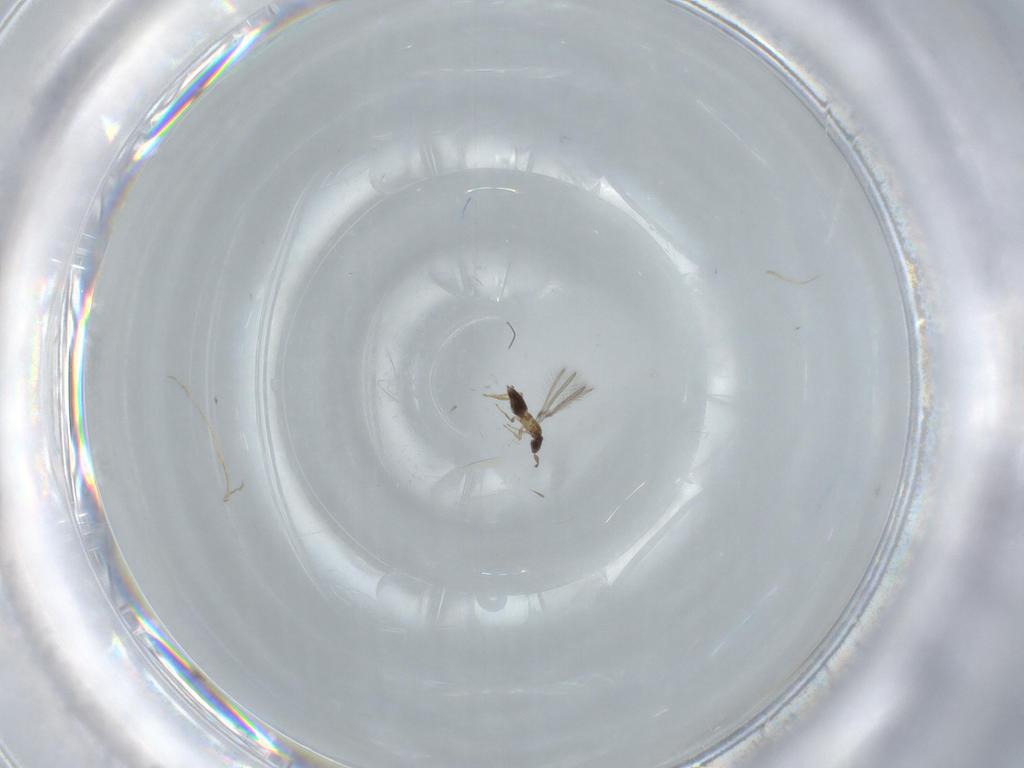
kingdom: Animalia
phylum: Arthropoda
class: Insecta
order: Hymenoptera
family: Mymaridae
